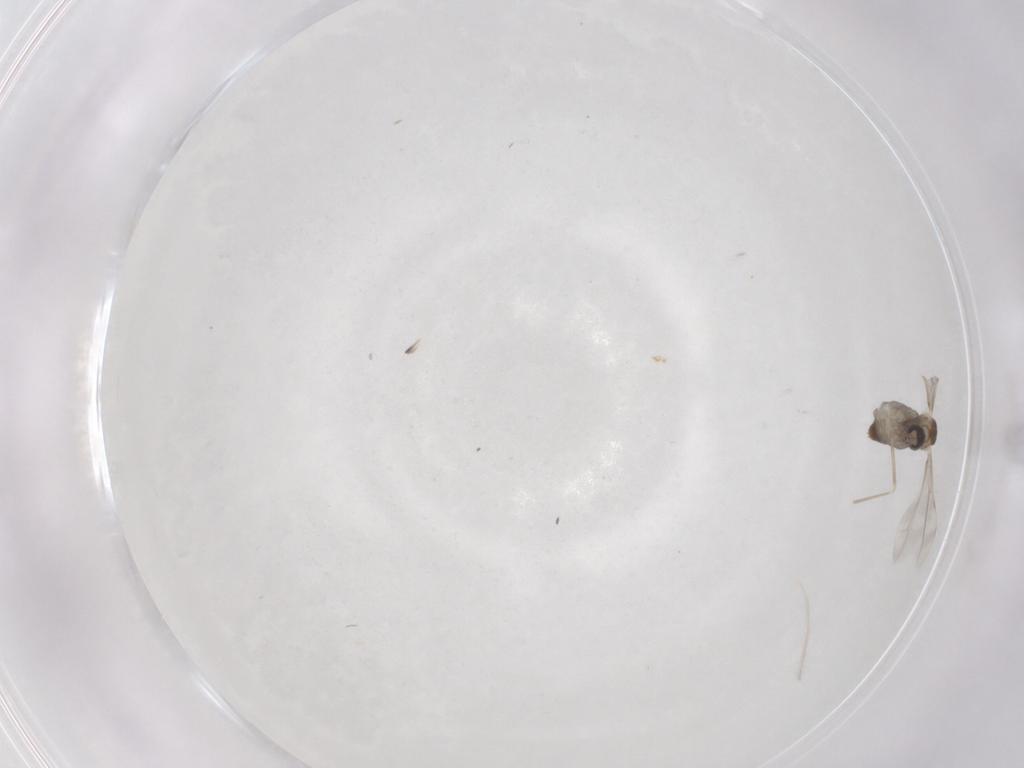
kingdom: Animalia
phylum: Arthropoda
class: Insecta
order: Diptera
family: Cecidomyiidae
